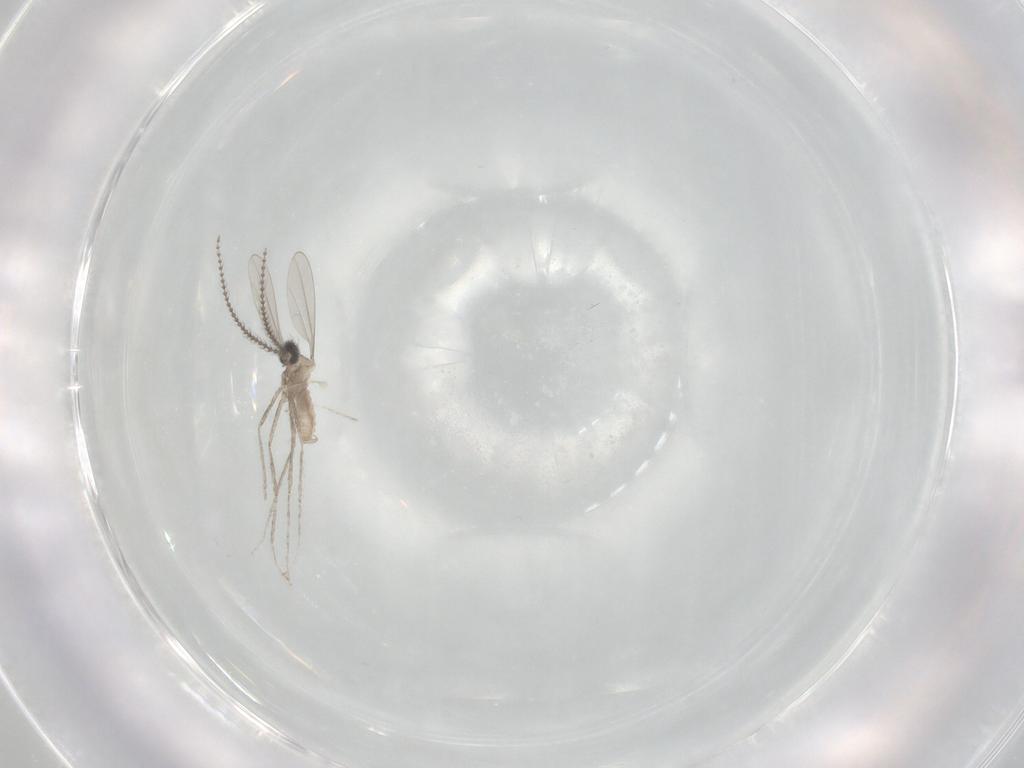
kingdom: Animalia
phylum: Arthropoda
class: Insecta
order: Diptera
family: Cecidomyiidae
